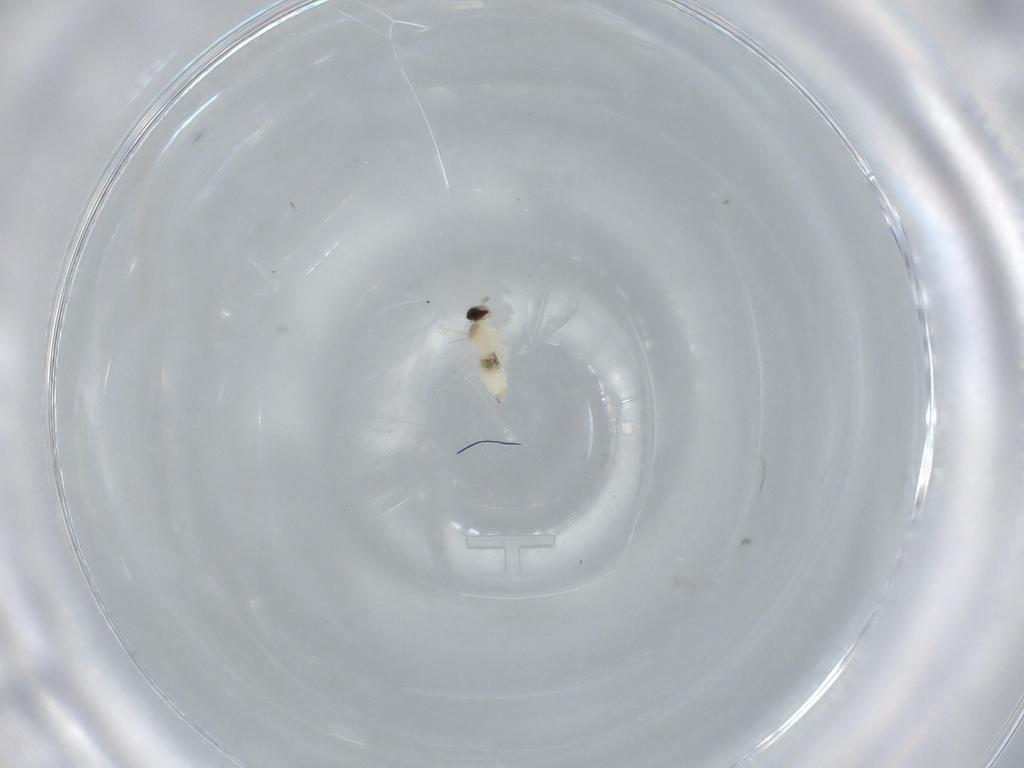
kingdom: Animalia
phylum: Arthropoda
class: Insecta
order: Diptera
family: Cecidomyiidae
